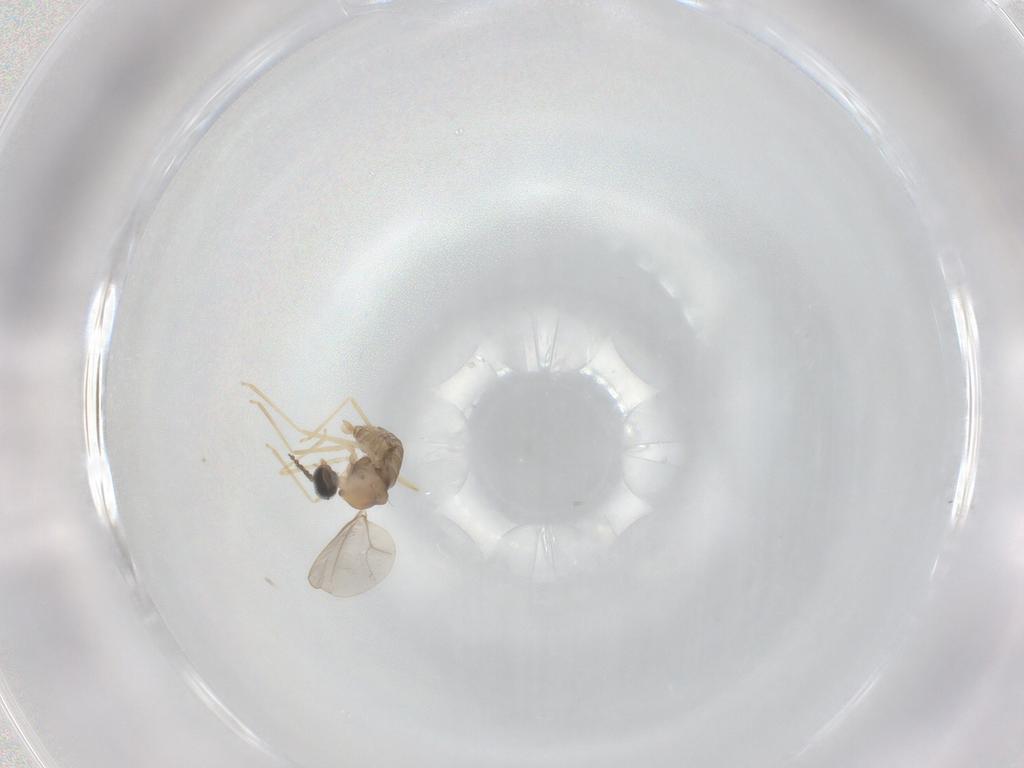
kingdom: Animalia
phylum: Arthropoda
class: Insecta
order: Diptera
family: Cecidomyiidae
